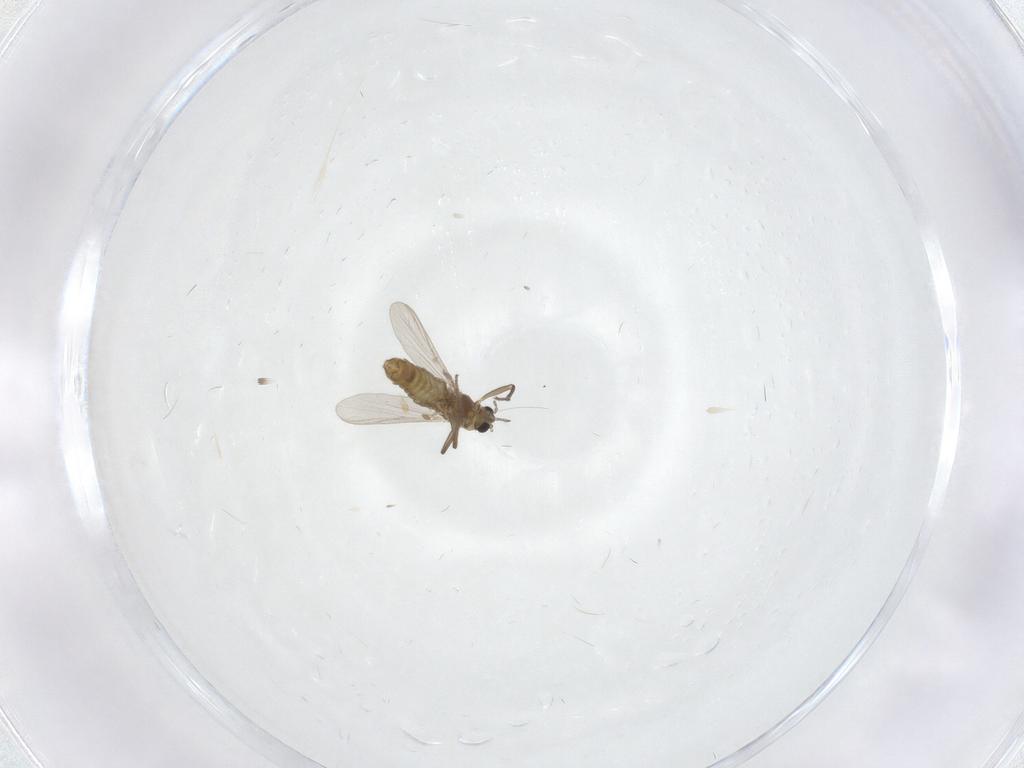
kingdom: Animalia
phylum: Arthropoda
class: Insecta
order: Diptera
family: Chironomidae
